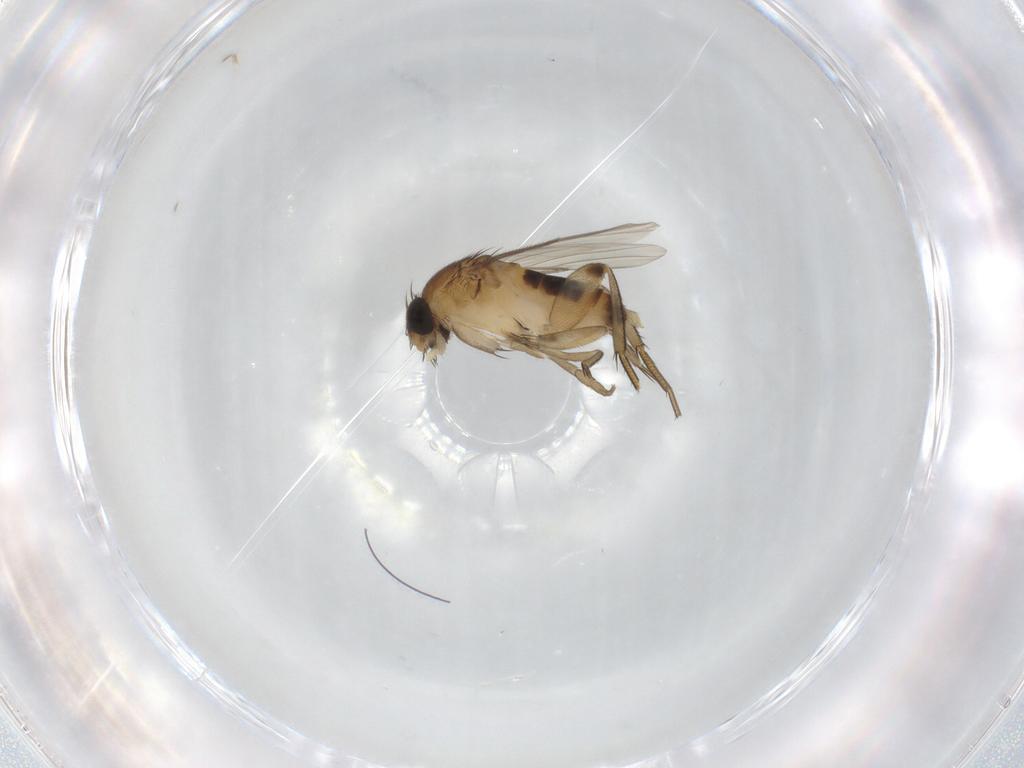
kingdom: Animalia
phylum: Arthropoda
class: Insecta
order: Diptera
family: Phoridae
